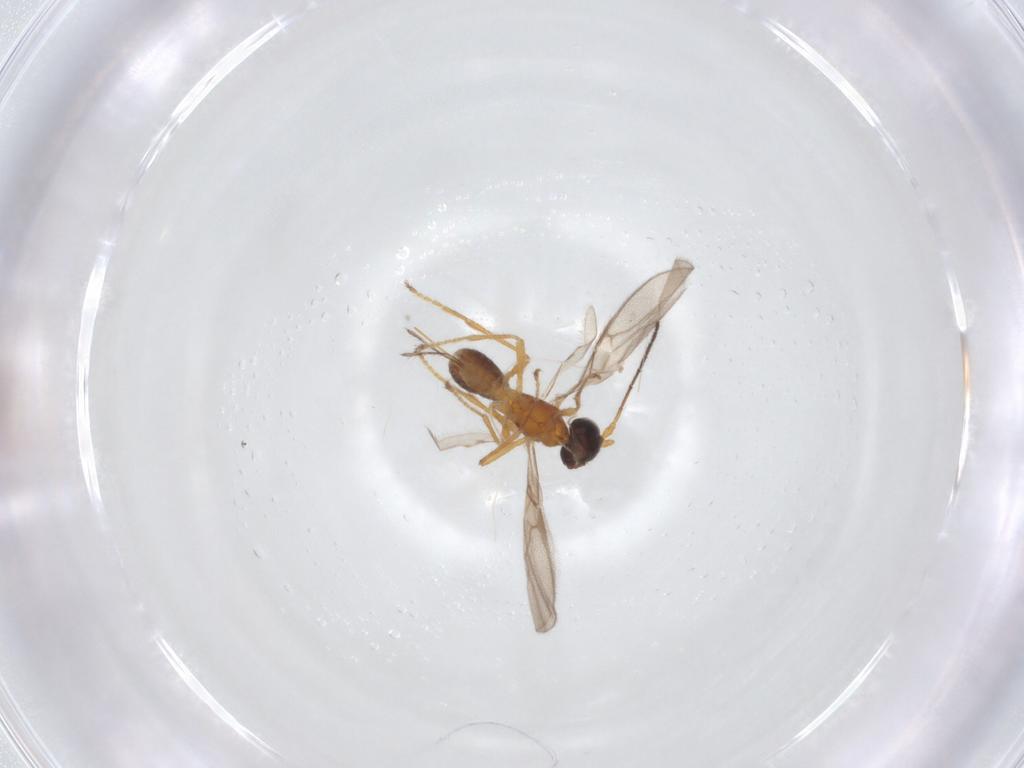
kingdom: Animalia
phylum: Arthropoda
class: Insecta
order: Hymenoptera
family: Braconidae
